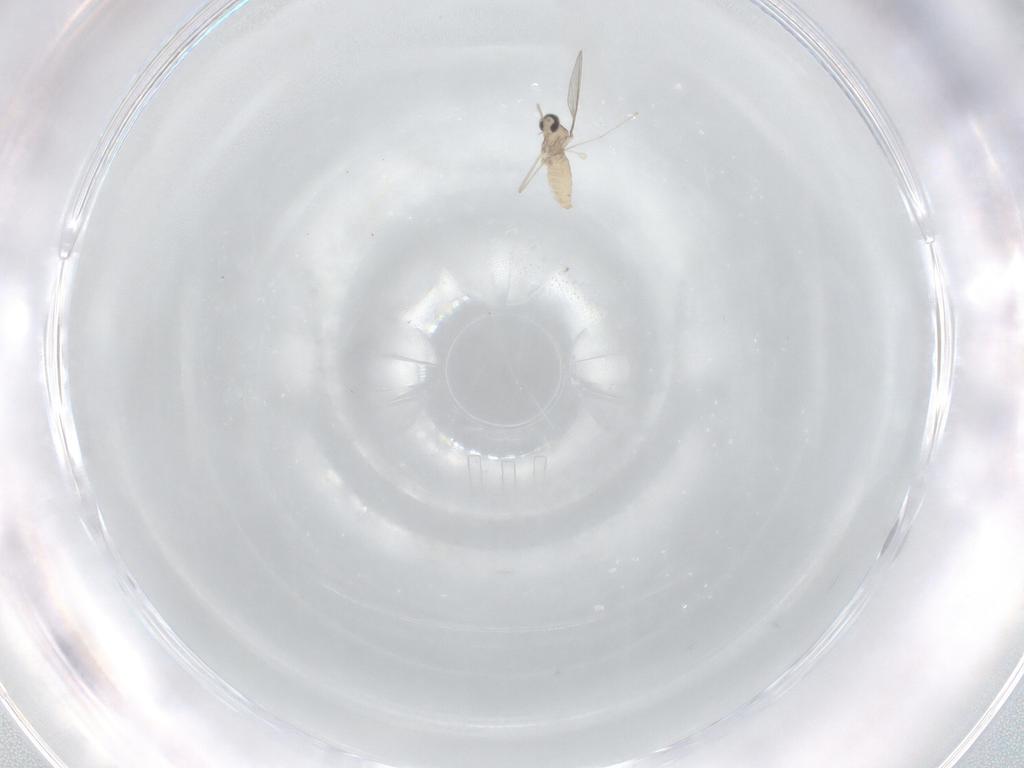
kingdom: Animalia
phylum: Arthropoda
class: Insecta
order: Diptera
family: Cecidomyiidae
